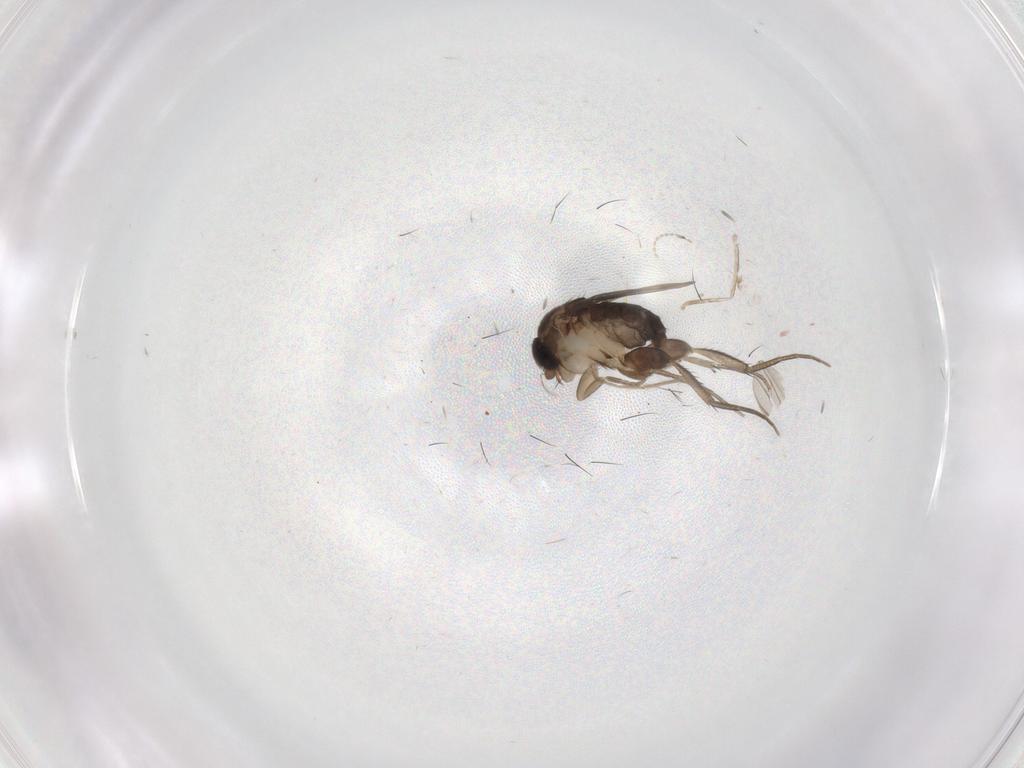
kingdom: Animalia
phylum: Arthropoda
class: Insecta
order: Diptera
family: Phoridae
